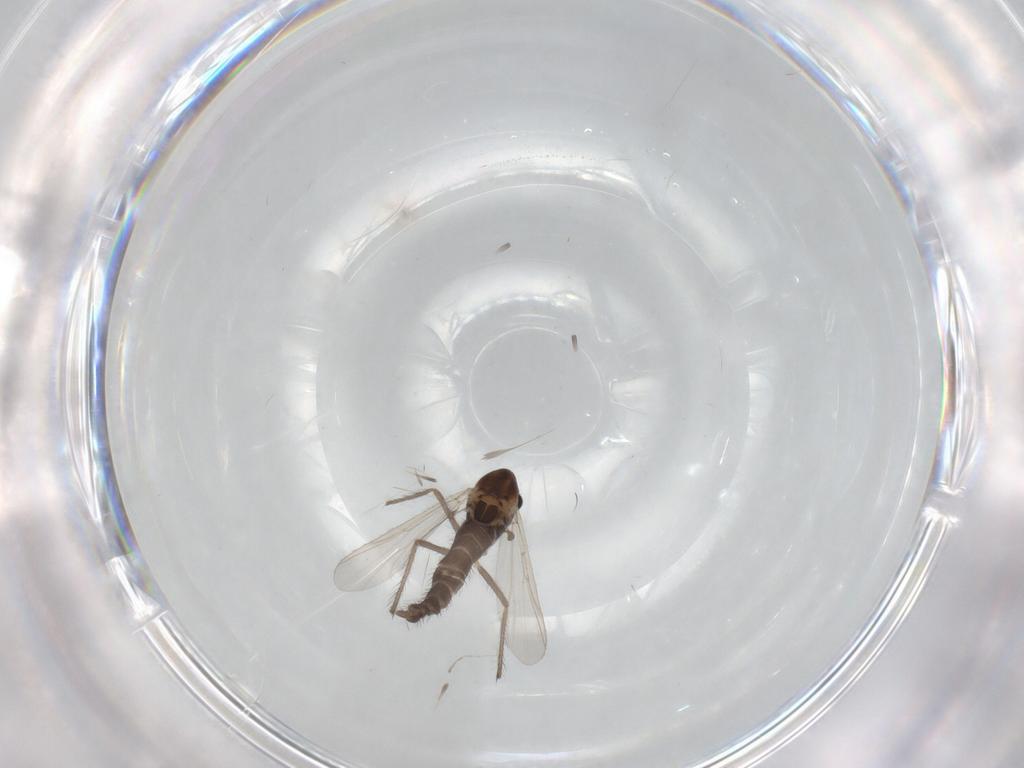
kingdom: Animalia
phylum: Arthropoda
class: Insecta
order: Diptera
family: Chironomidae
